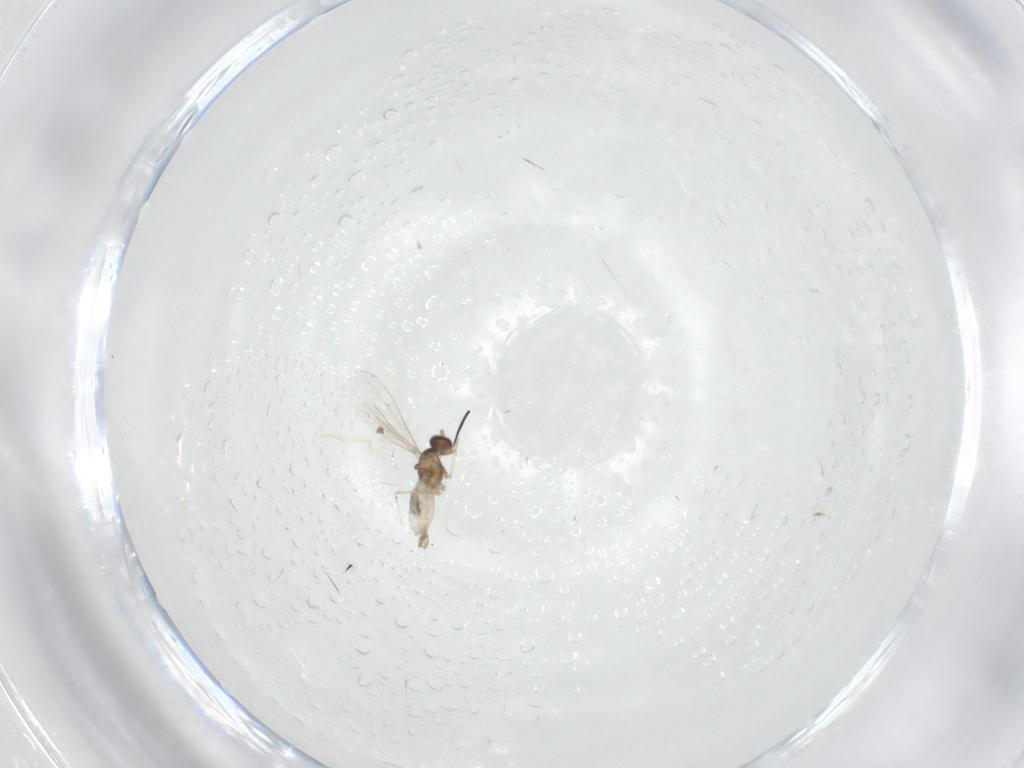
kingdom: Animalia
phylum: Arthropoda
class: Insecta
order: Diptera
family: Cecidomyiidae
